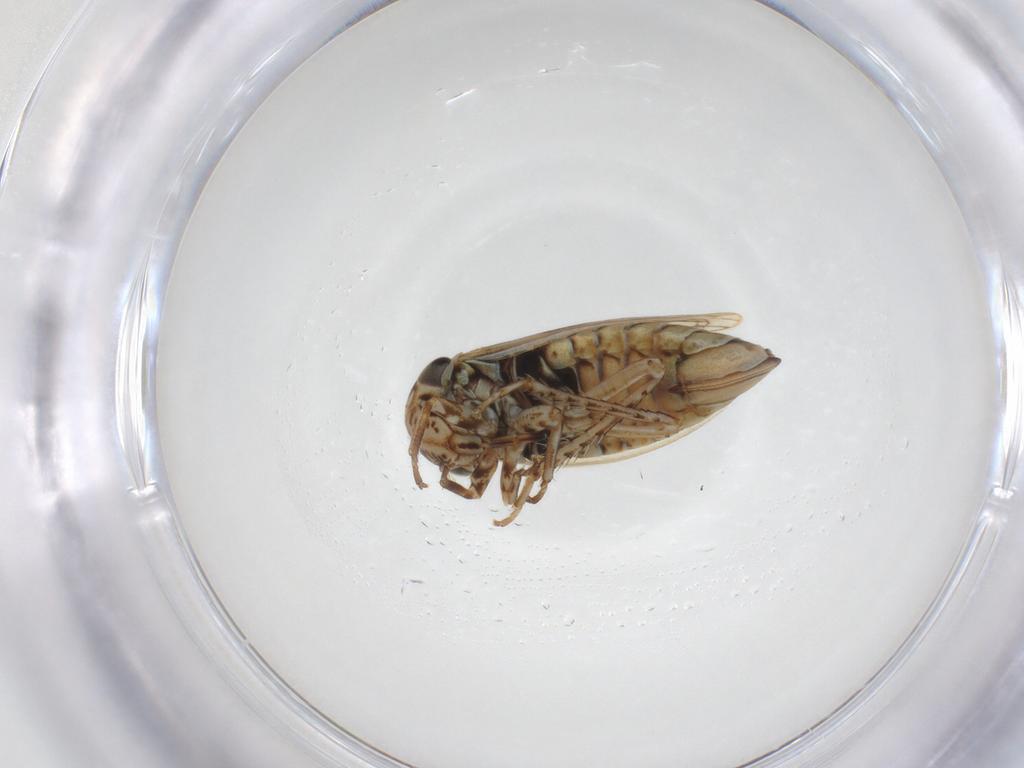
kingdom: Animalia
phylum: Arthropoda
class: Insecta
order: Hemiptera
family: Cicadellidae
